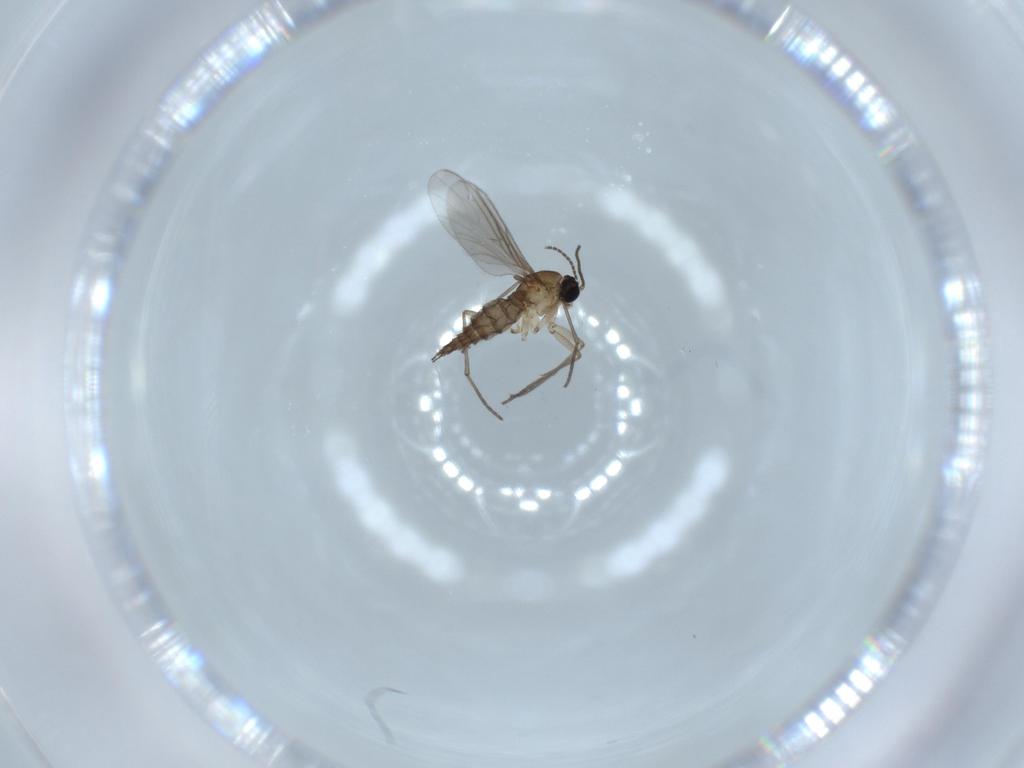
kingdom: Animalia
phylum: Arthropoda
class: Insecta
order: Diptera
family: Sciaridae
